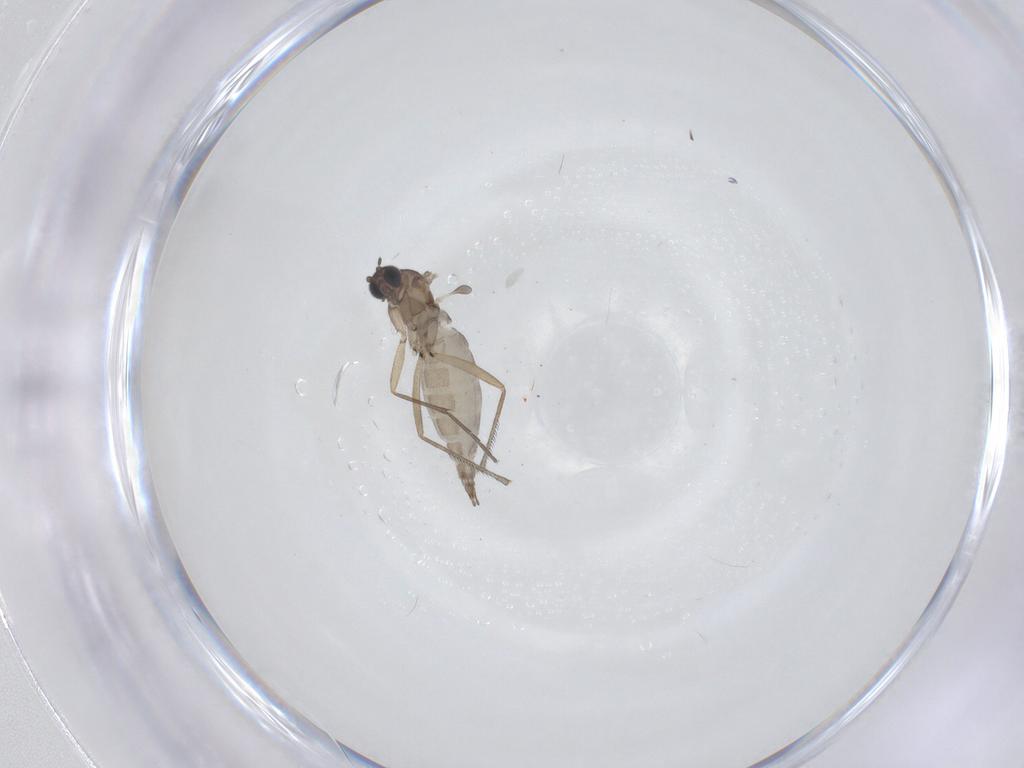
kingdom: Animalia
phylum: Arthropoda
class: Insecta
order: Diptera
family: Sciaridae
